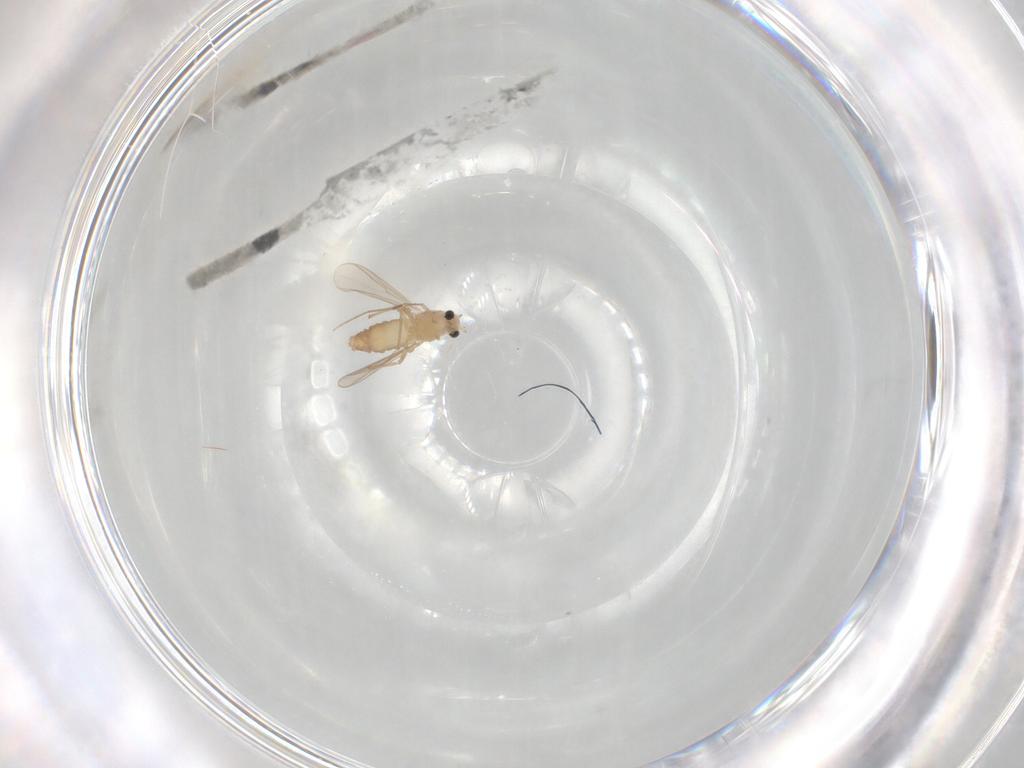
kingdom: Animalia
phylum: Arthropoda
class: Insecta
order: Diptera
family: Chironomidae
